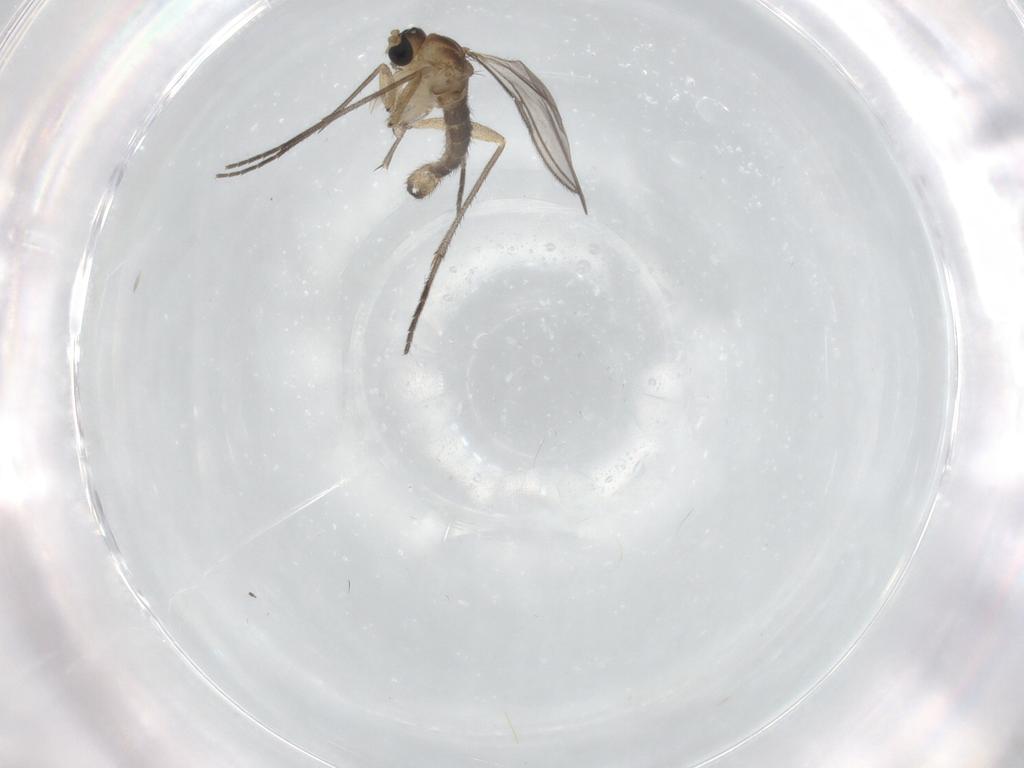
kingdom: Animalia
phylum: Arthropoda
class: Insecta
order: Diptera
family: Sciaridae
